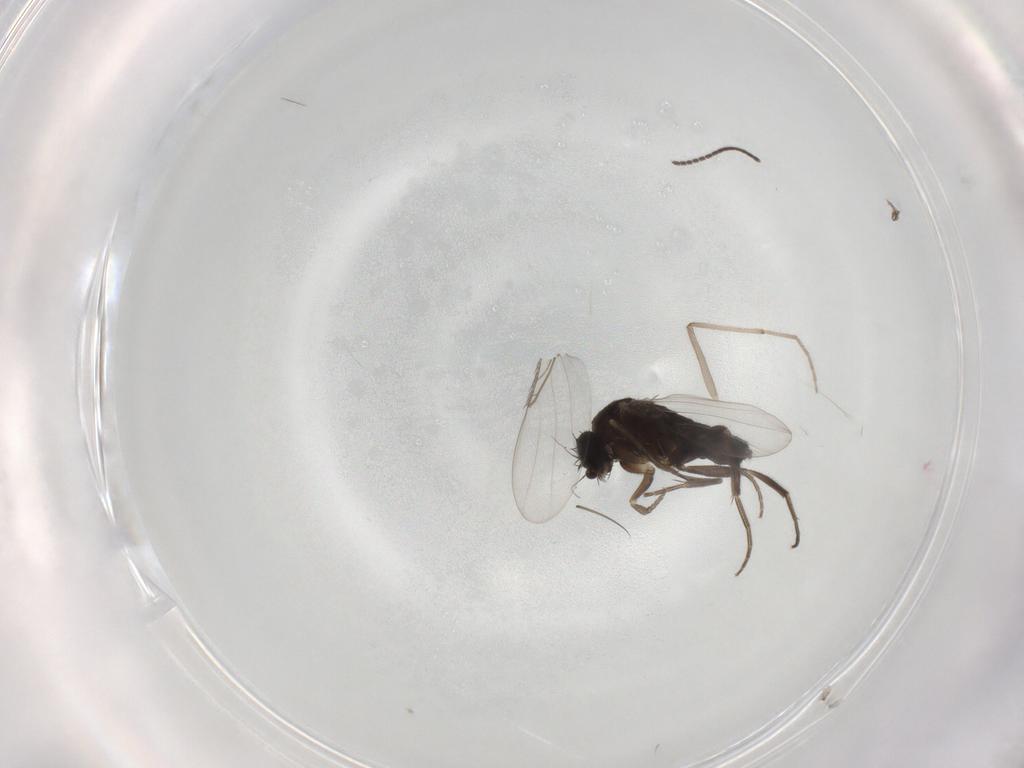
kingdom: Animalia
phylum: Arthropoda
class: Insecta
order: Diptera
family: Phoridae
